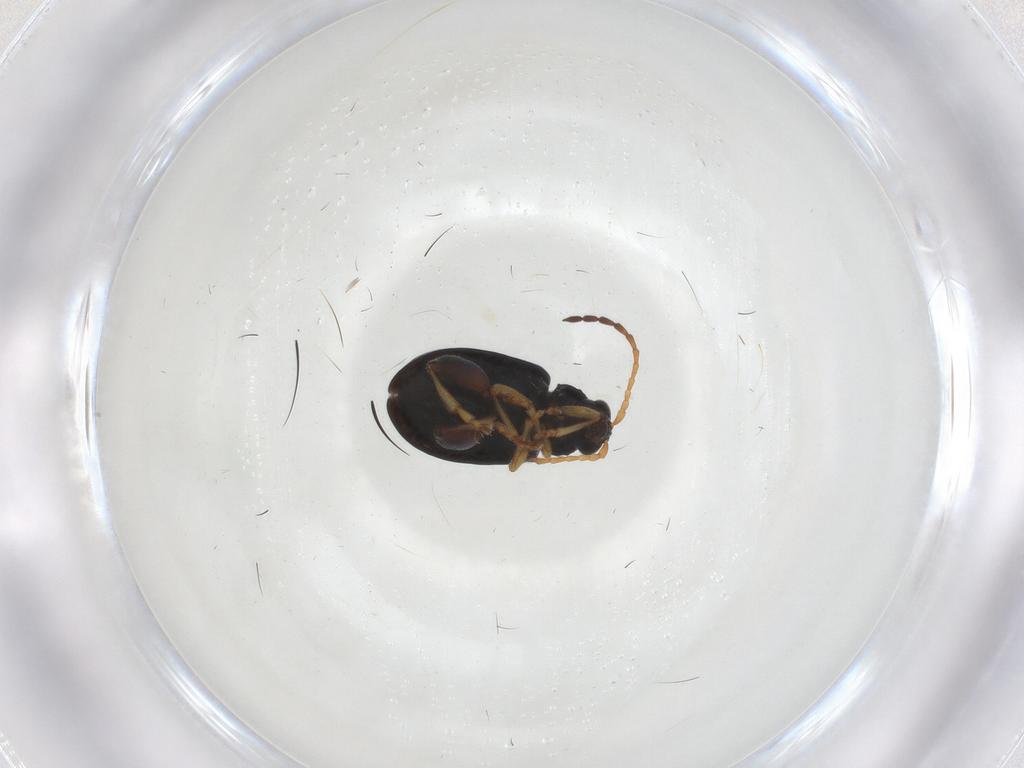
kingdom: Animalia
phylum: Arthropoda
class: Insecta
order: Coleoptera
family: Chrysomelidae
